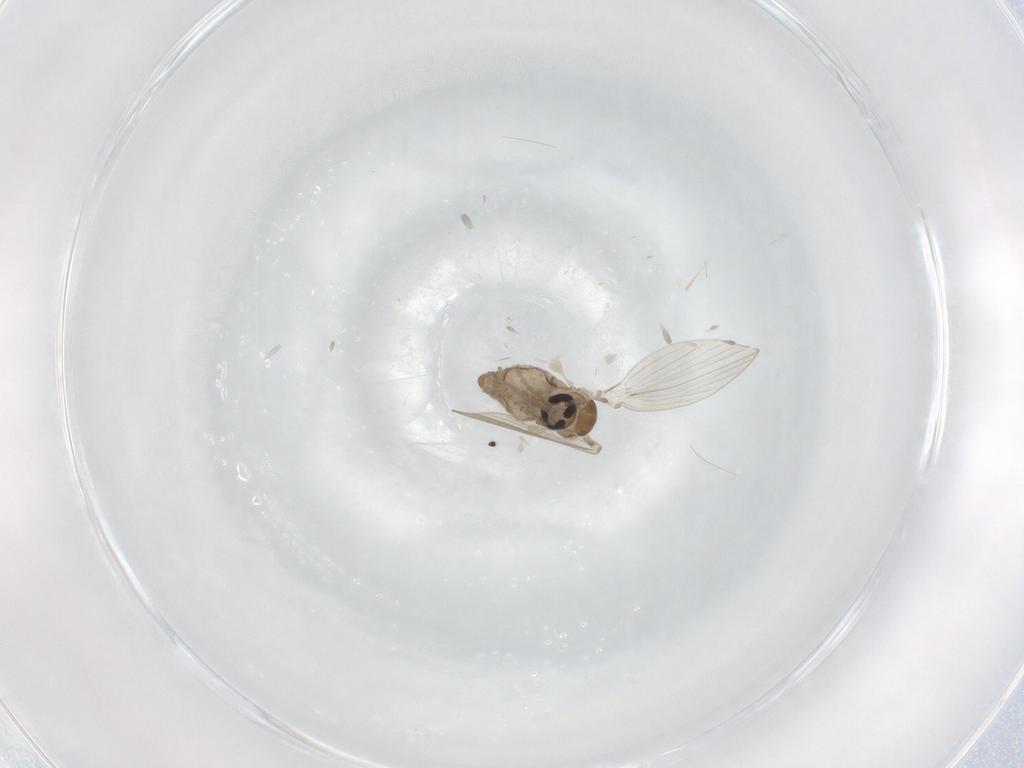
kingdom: Animalia
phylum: Arthropoda
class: Insecta
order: Diptera
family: Psychodidae
